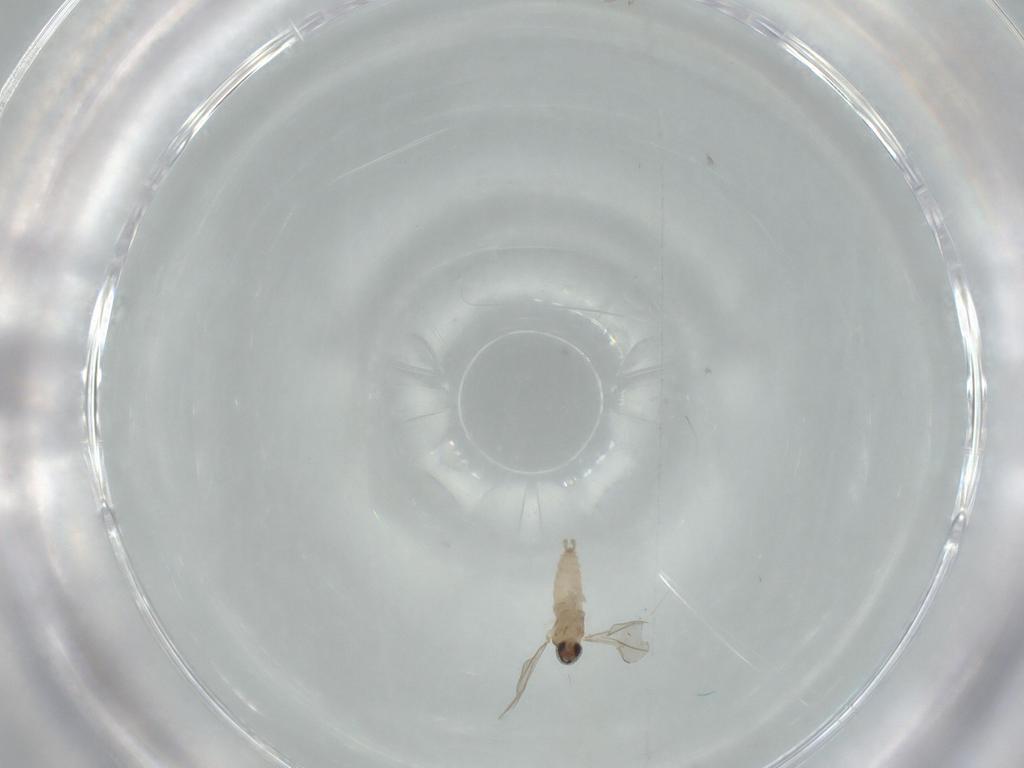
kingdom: Animalia
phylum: Arthropoda
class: Insecta
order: Diptera
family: Cecidomyiidae
